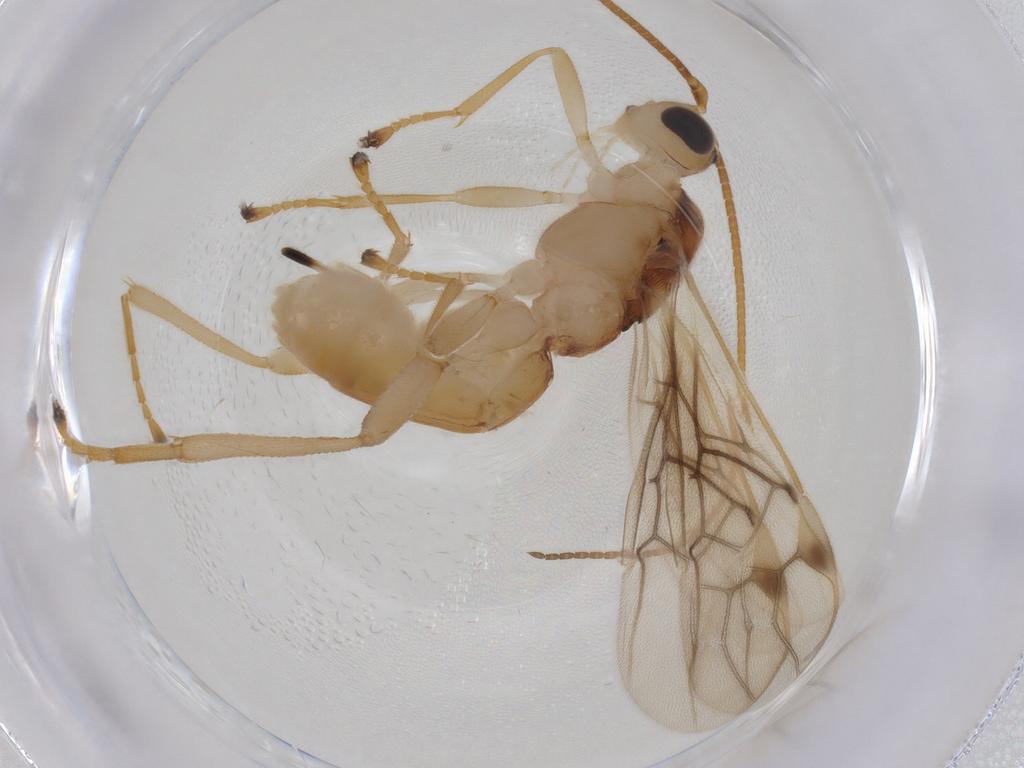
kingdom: Animalia
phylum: Arthropoda
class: Insecta
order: Hymenoptera
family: Braconidae
